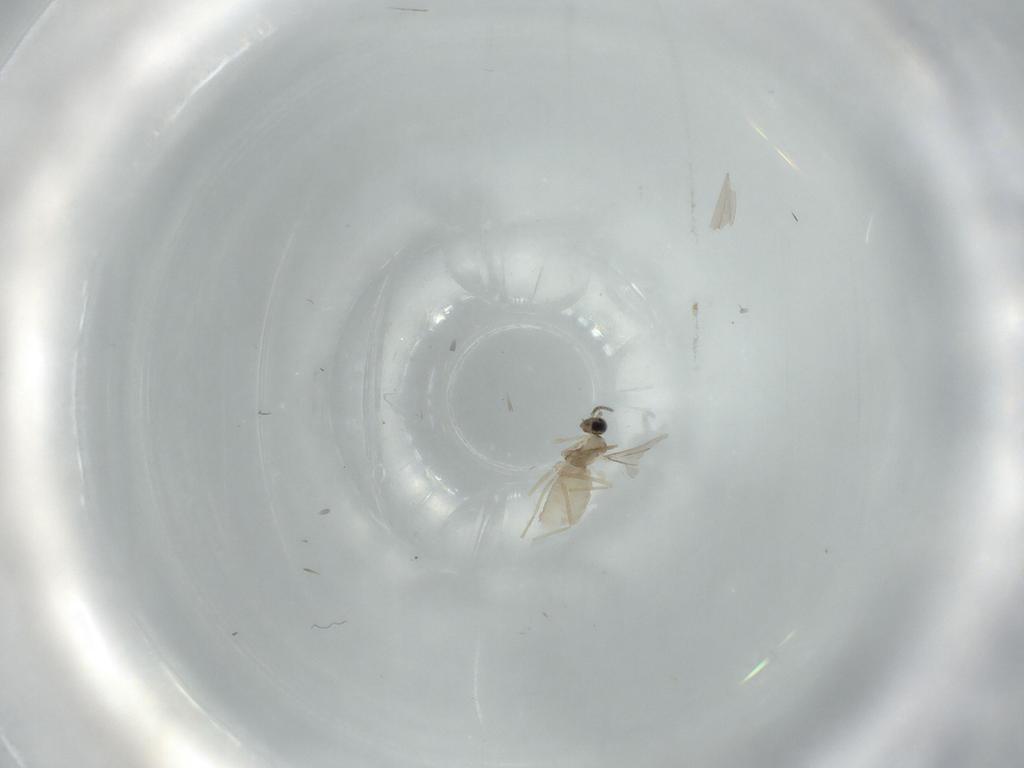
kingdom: Animalia
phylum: Arthropoda
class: Insecta
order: Diptera
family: Cecidomyiidae
